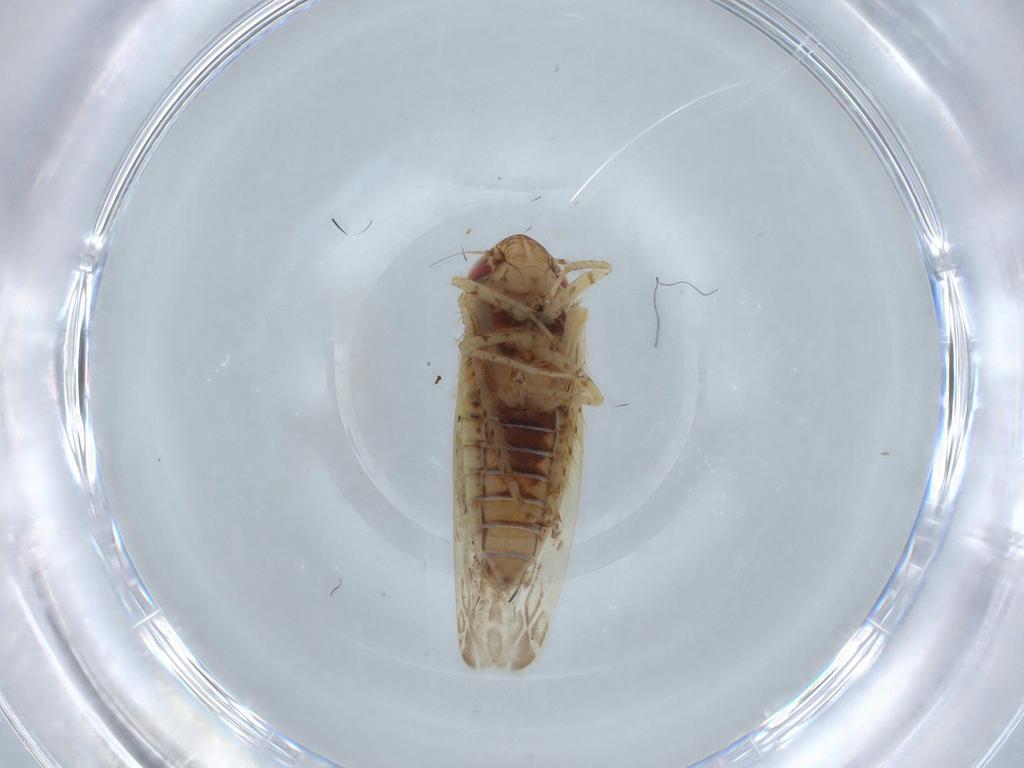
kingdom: Animalia
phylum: Arthropoda
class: Insecta
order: Hemiptera
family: Cicadellidae
